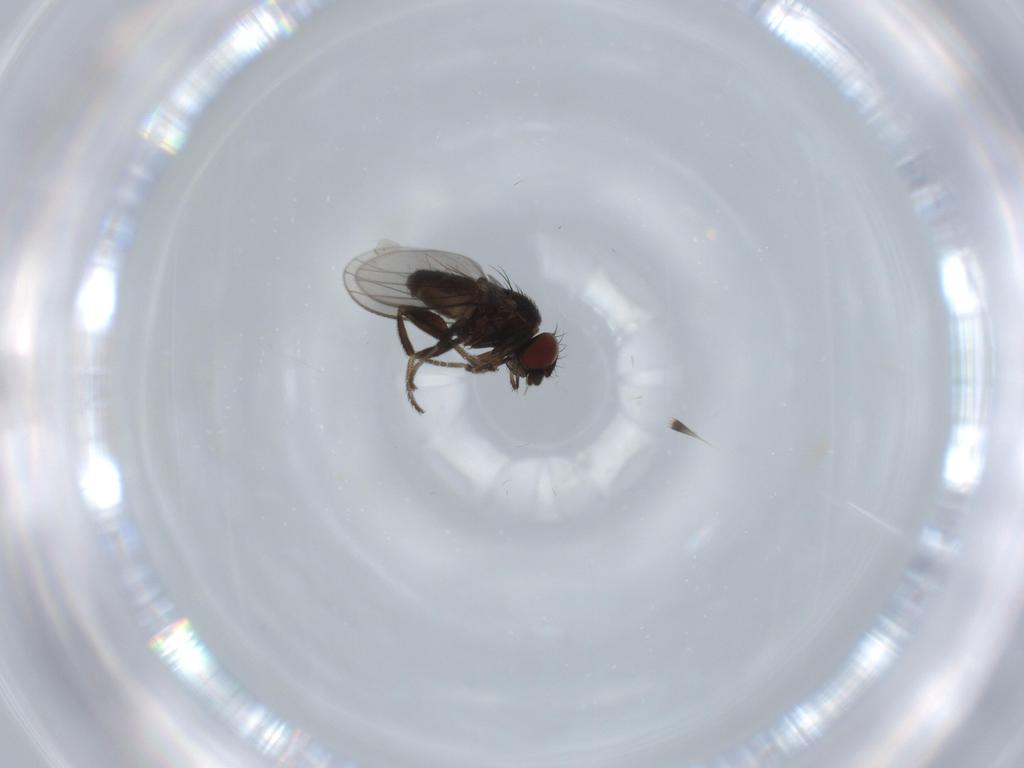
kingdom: Animalia
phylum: Arthropoda
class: Insecta
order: Diptera
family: Milichiidae
